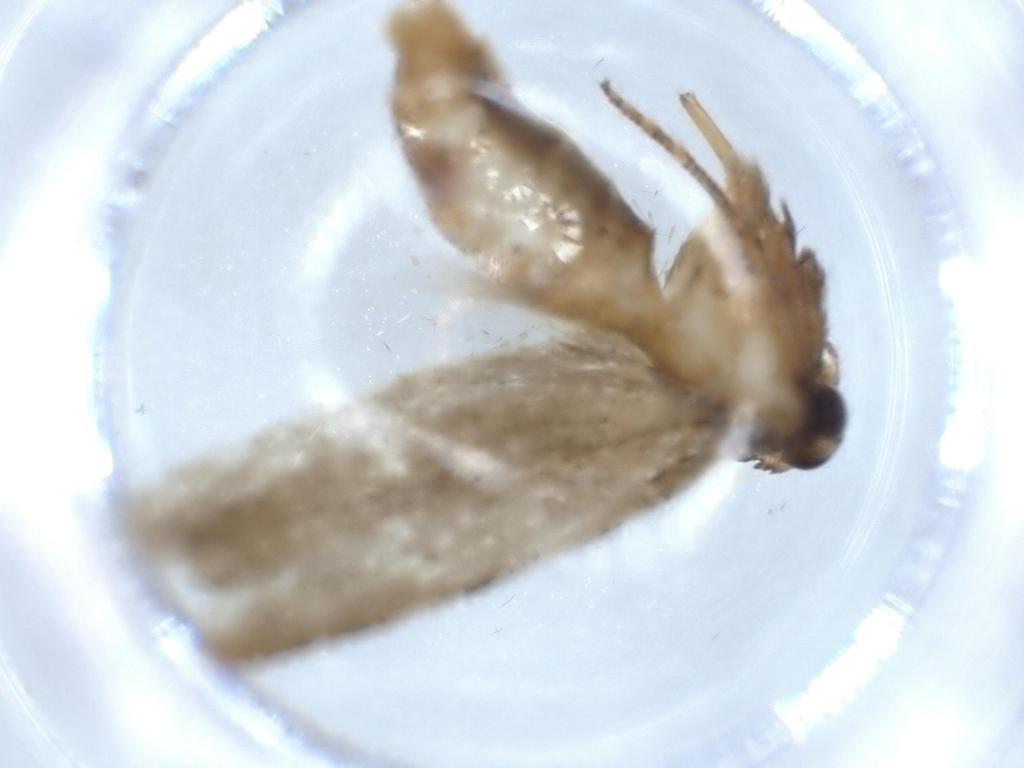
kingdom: Animalia
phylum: Arthropoda
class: Insecta
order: Lepidoptera
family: Blastobasidae
